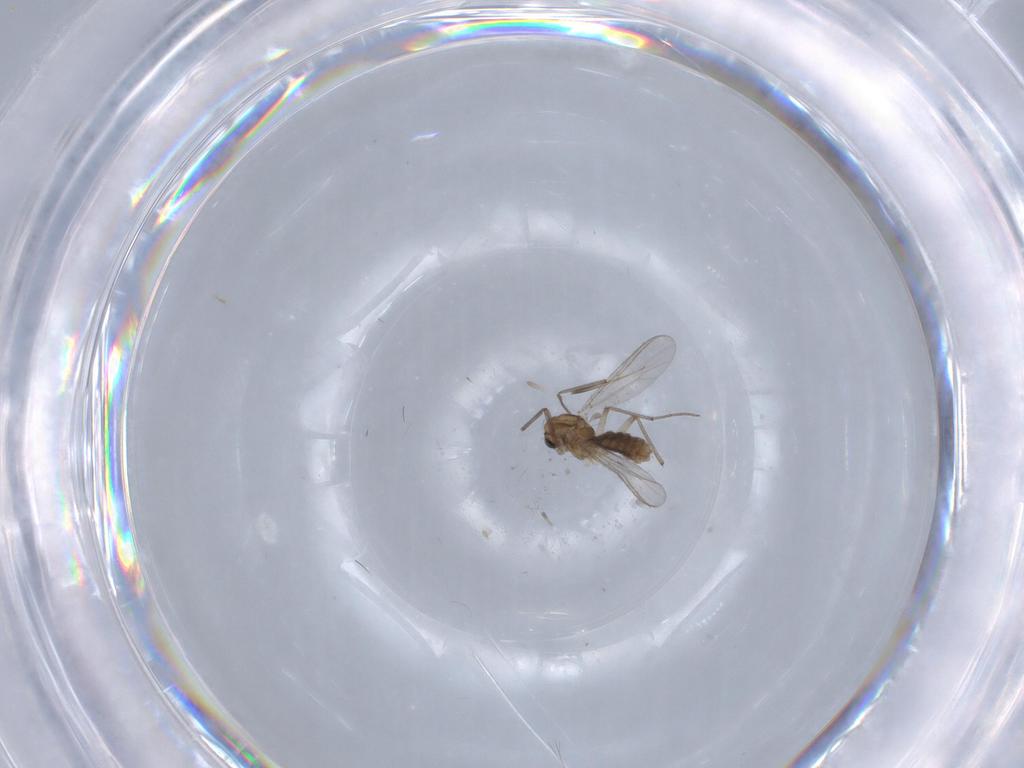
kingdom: Animalia
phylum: Arthropoda
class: Insecta
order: Diptera
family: Chironomidae
